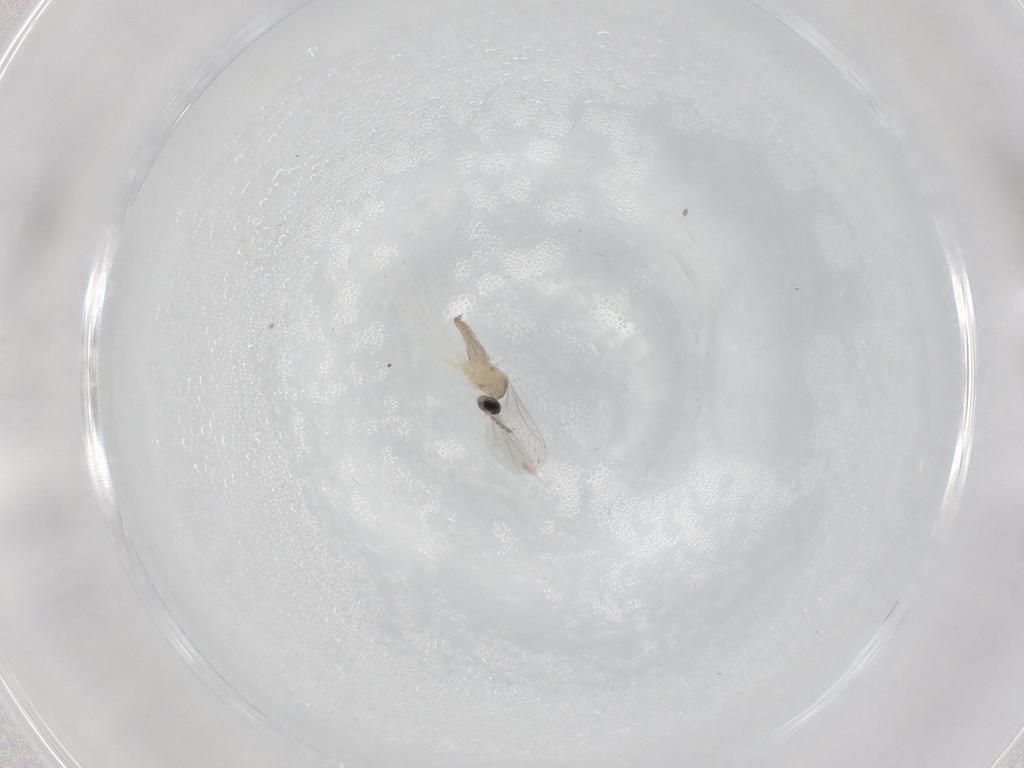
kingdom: Animalia
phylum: Arthropoda
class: Insecta
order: Diptera
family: Cecidomyiidae
